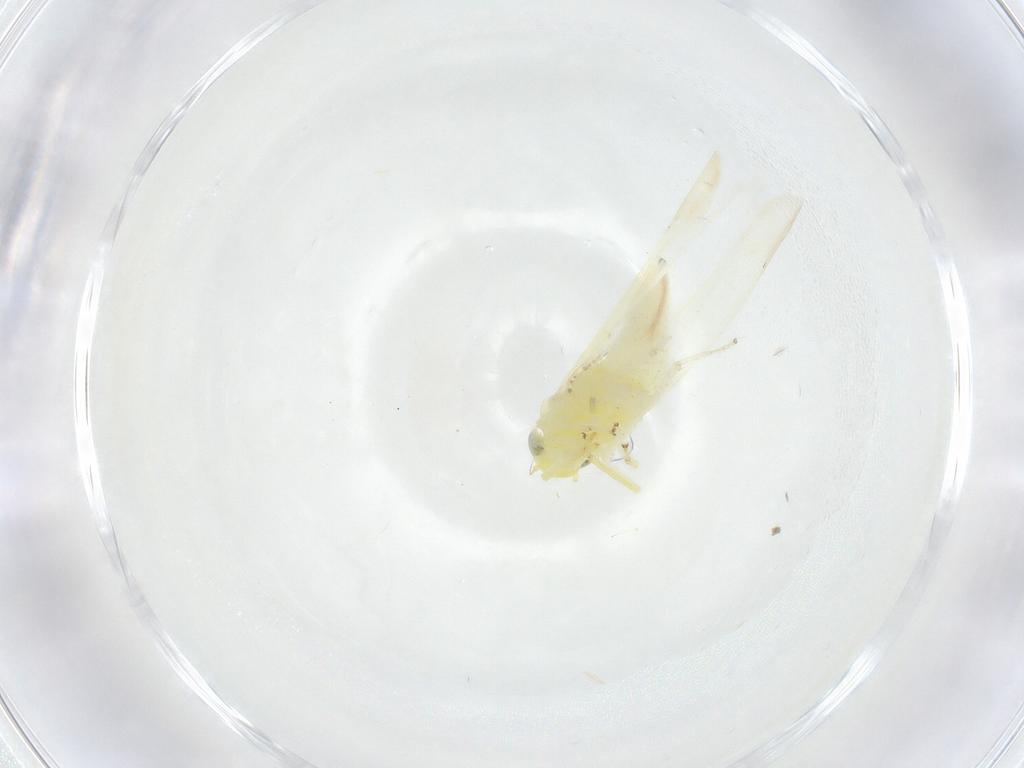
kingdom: Animalia
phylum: Arthropoda
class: Insecta
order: Hemiptera
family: Cicadellidae
